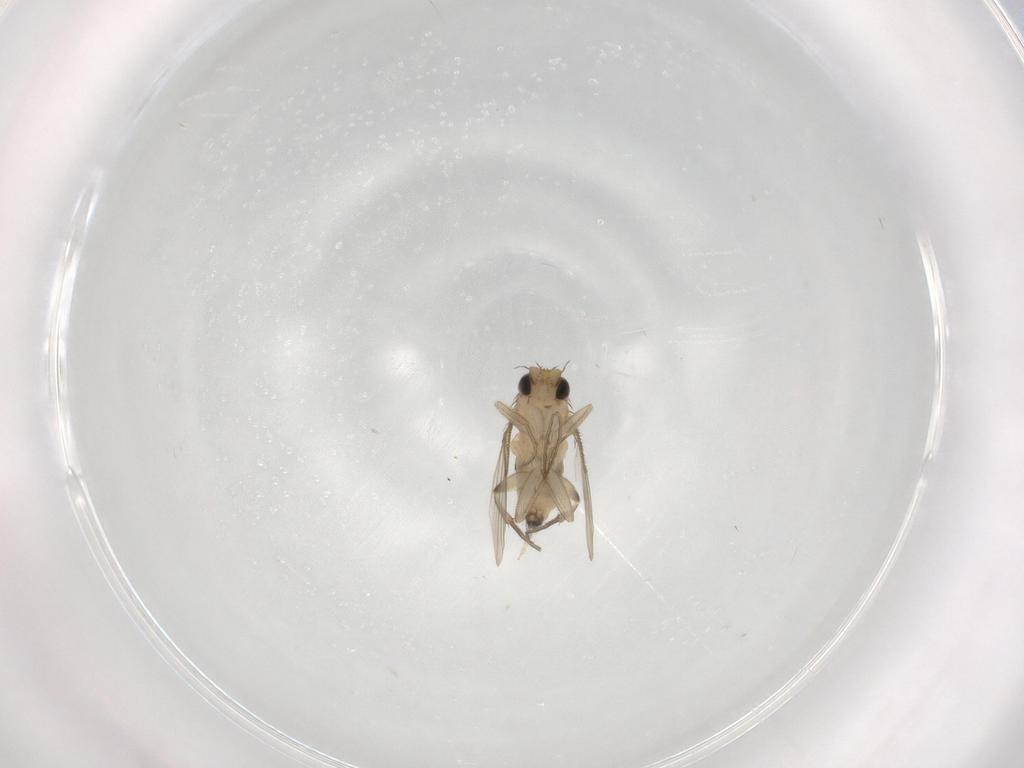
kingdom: Animalia
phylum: Arthropoda
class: Insecta
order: Diptera
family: Phoridae
